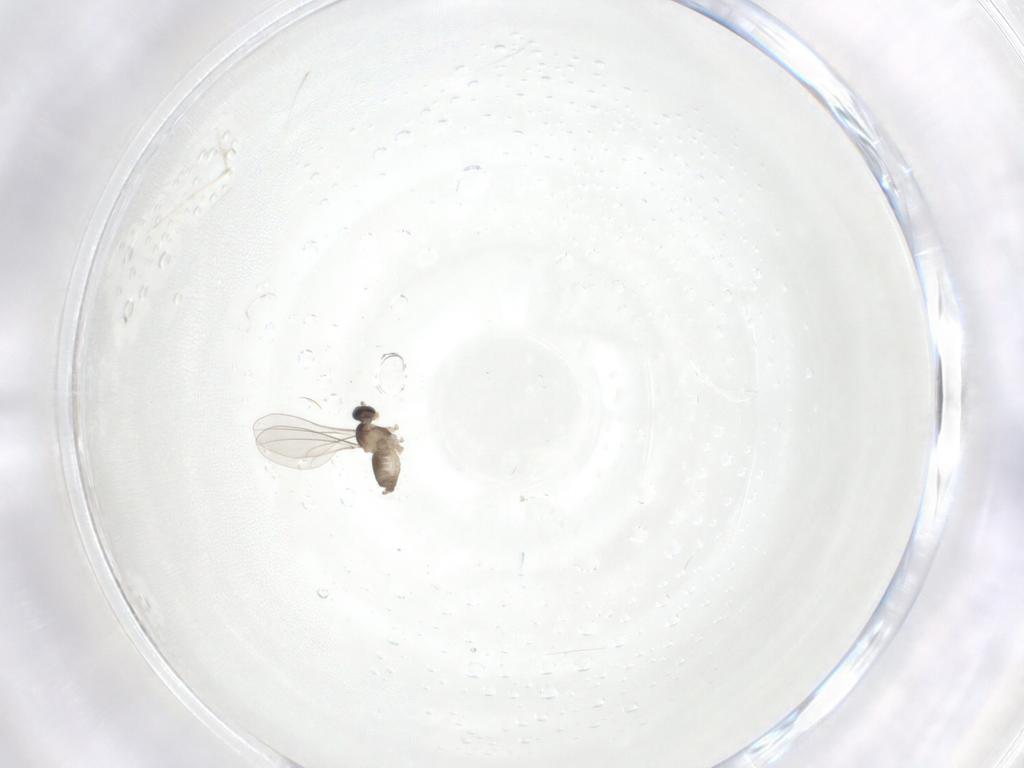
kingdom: Animalia
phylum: Arthropoda
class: Insecta
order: Diptera
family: Cecidomyiidae
